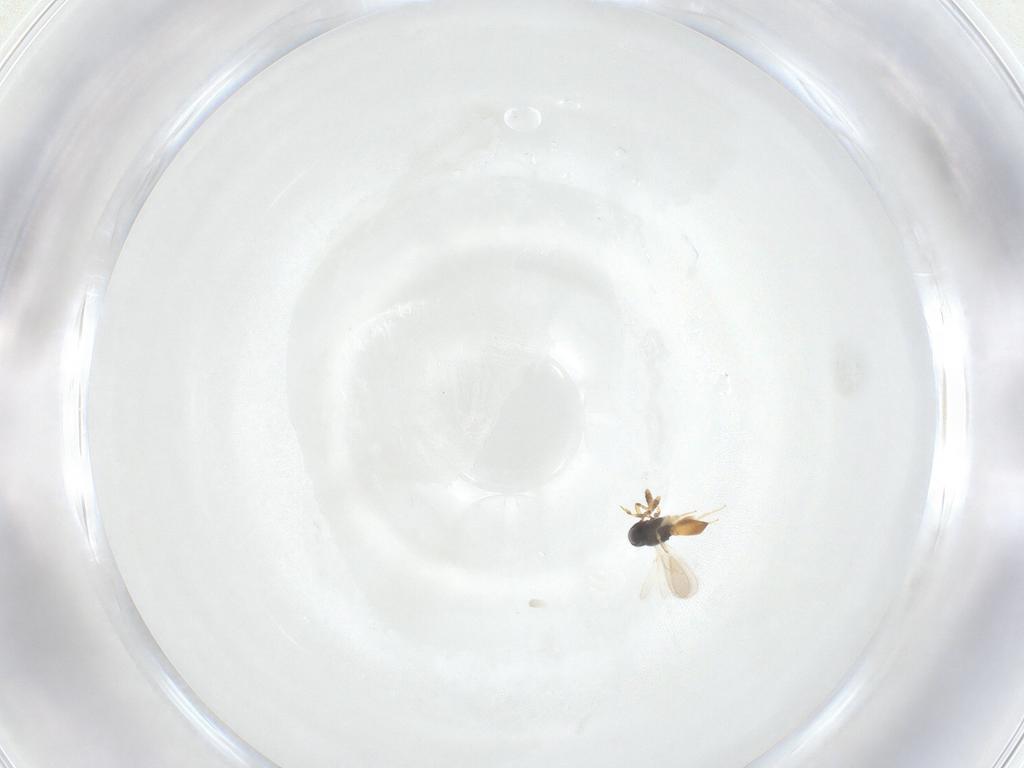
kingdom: Animalia
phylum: Arthropoda
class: Insecta
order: Hymenoptera
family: Scelionidae
